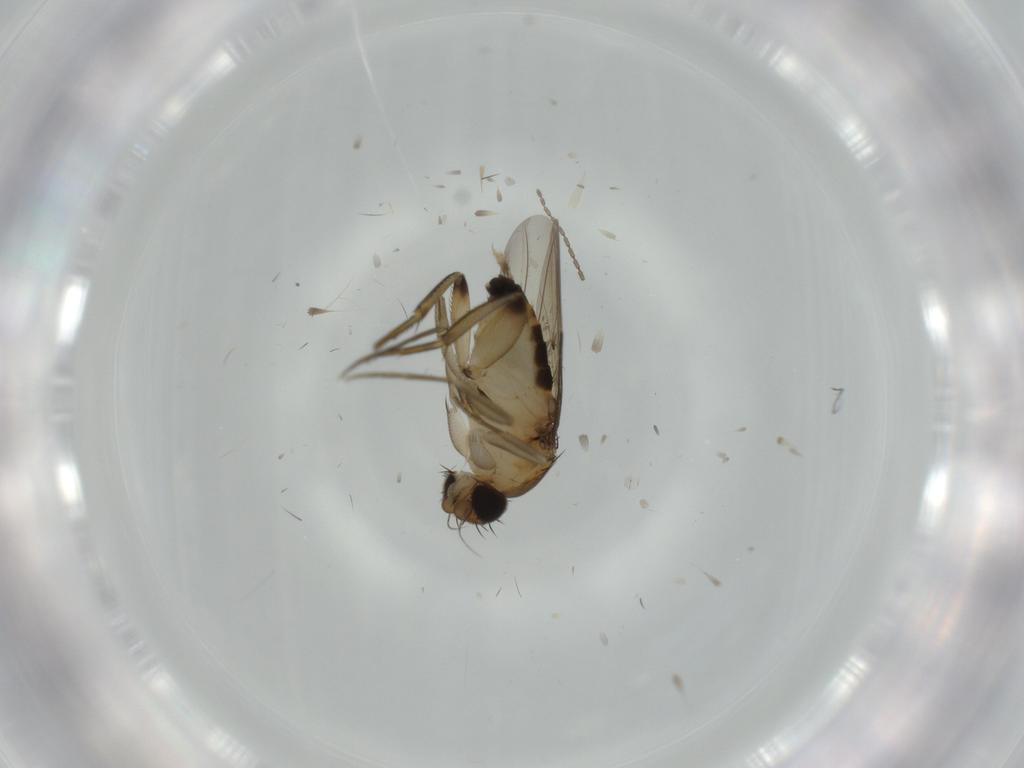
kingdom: Animalia
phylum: Arthropoda
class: Insecta
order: Diptera
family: Phoridae
